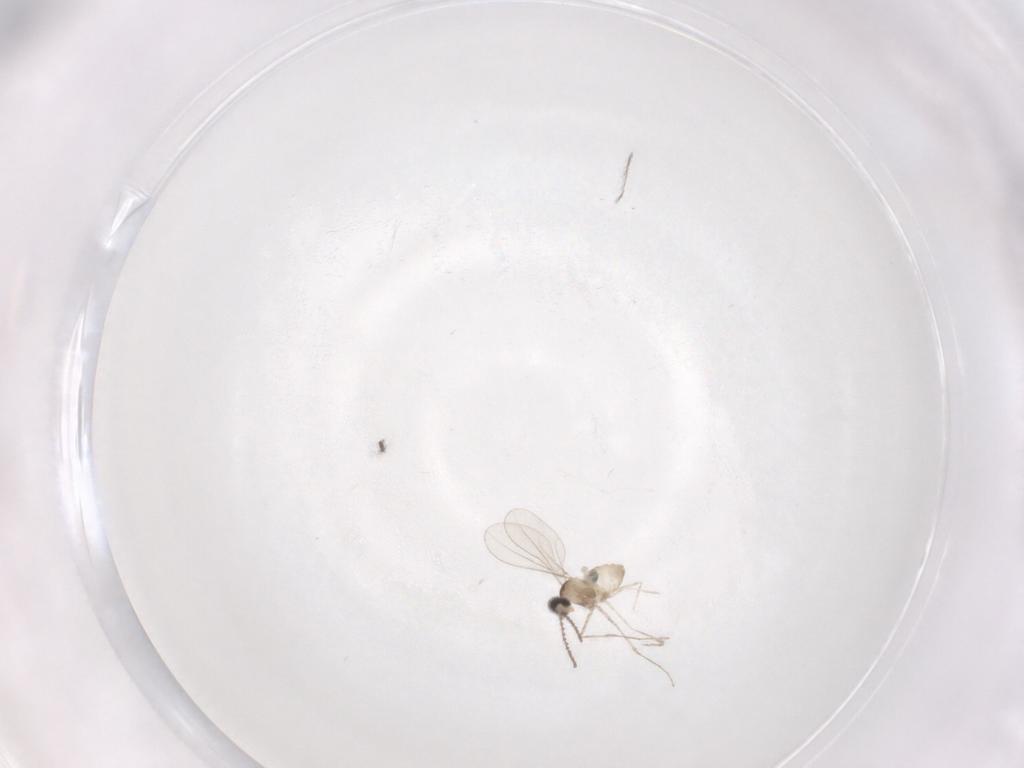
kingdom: Animalia
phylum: Arthropoda
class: Insecta
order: Diptera
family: Sciaridae
